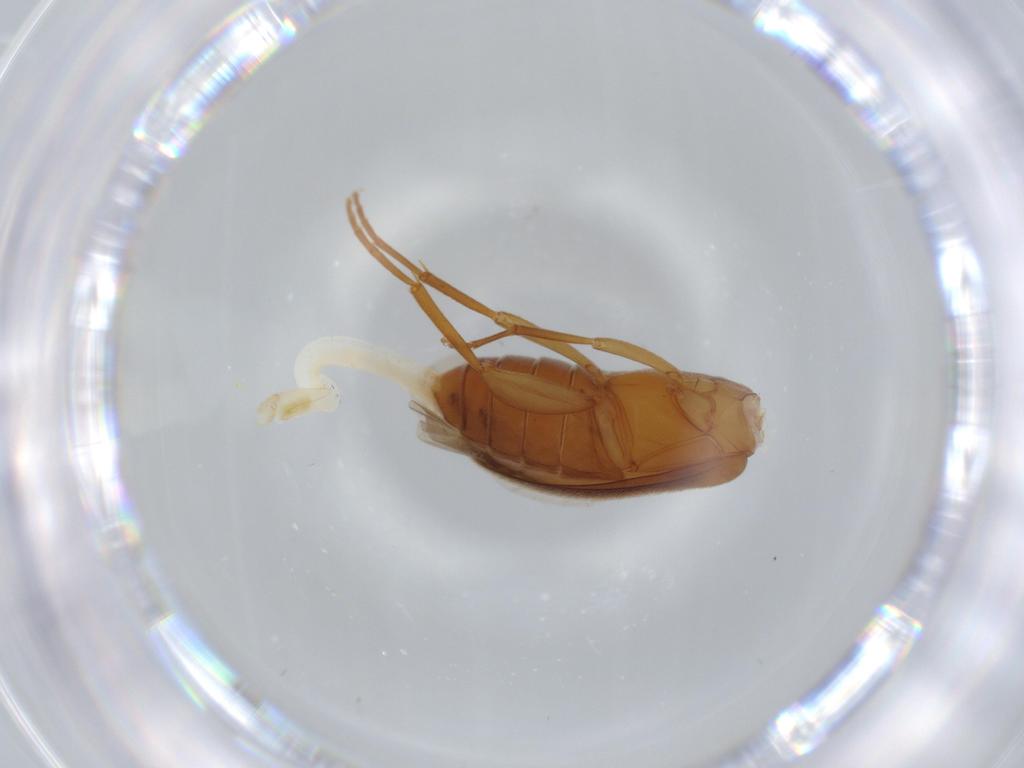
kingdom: Animalia
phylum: Arthropoda
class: Insecta
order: Coleoptera
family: Scraptiidae
